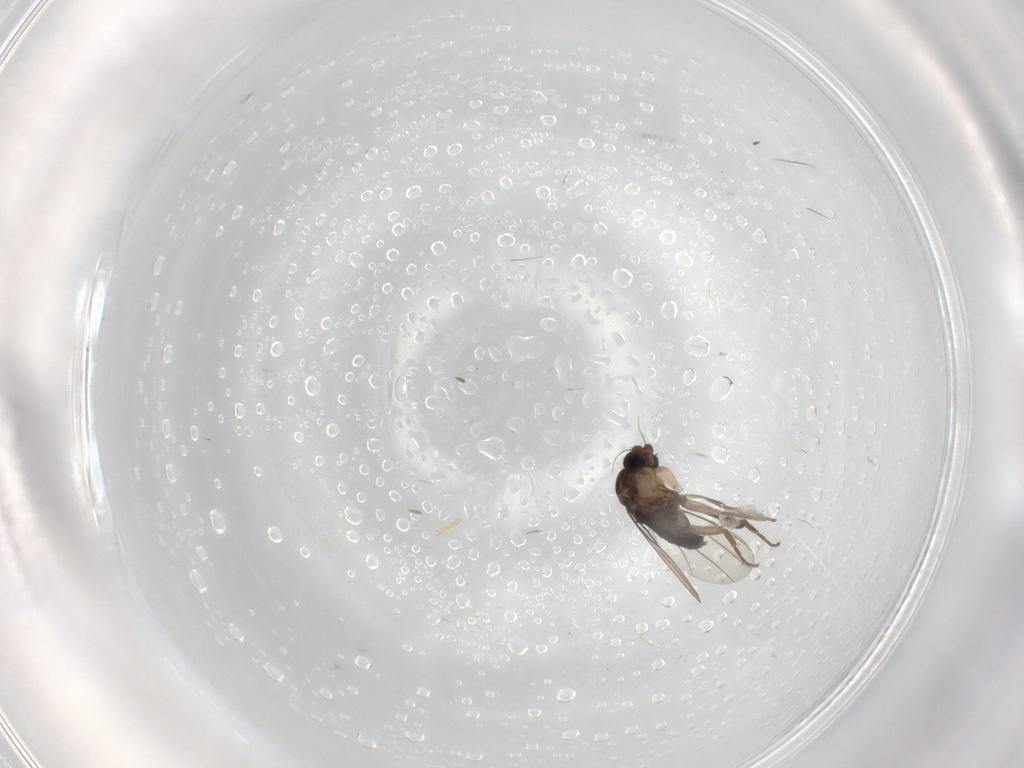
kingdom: Animalia
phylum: Arthropoda
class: Insecta
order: Diptera
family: Phoridae
